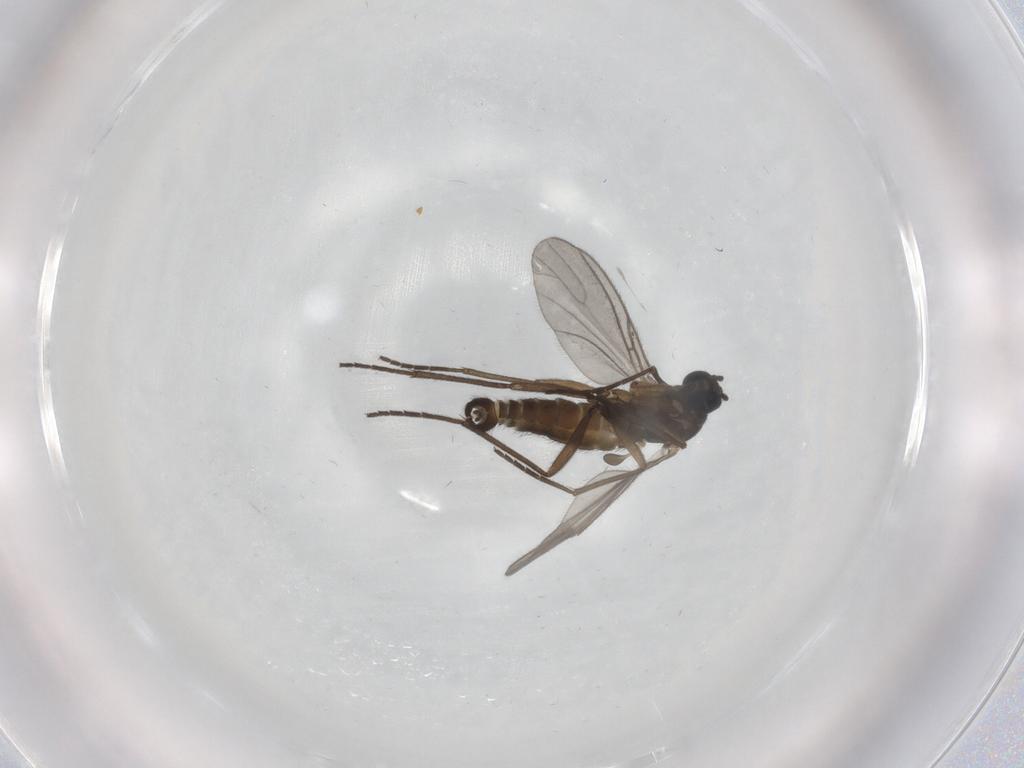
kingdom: Animalia
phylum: Arthropoda
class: Insecta
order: Diptera
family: Sciaridae
